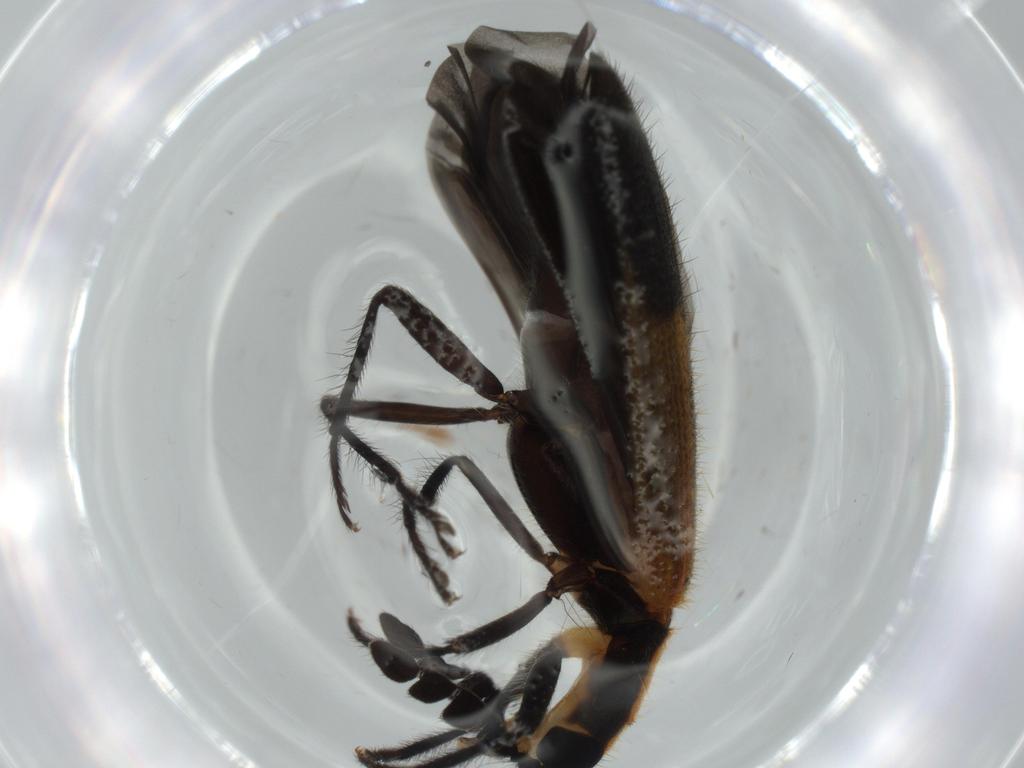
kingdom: Animalia
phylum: Arthropoda
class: Insecta
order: Coleoptera
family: Cleridae
